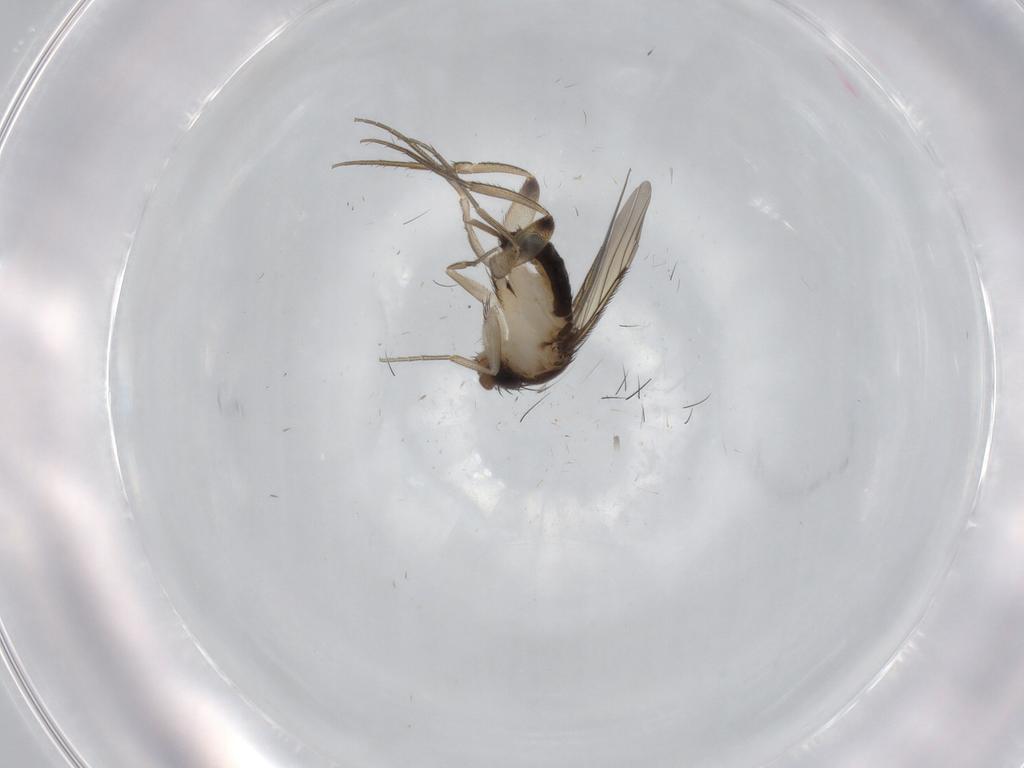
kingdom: Animalia
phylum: Arthropoda
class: Insecta
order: Diptera
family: Phoridae
